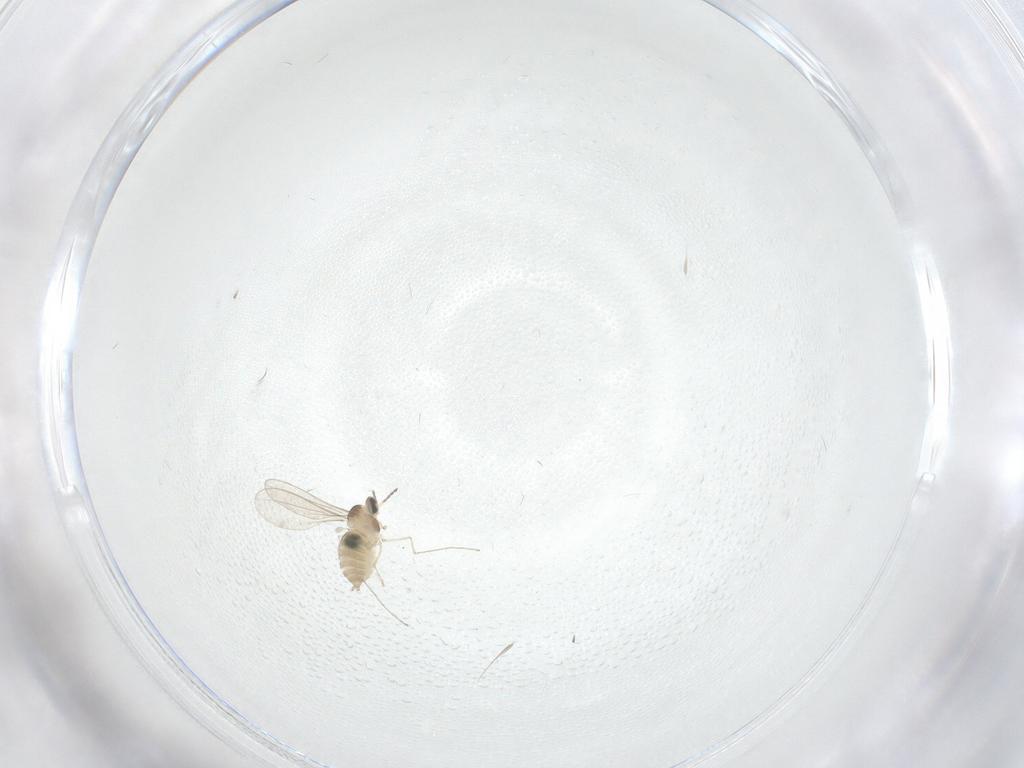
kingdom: Animalia
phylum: Arthropoda
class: Insecta
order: Diptera
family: Cecidomyiidae
